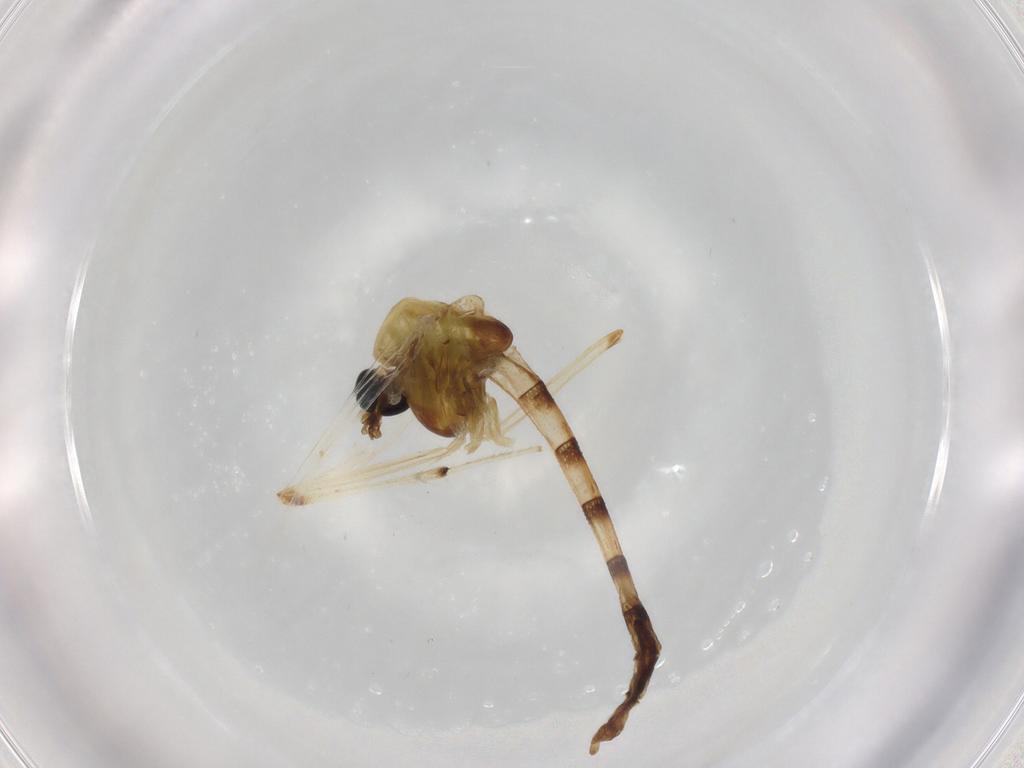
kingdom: Animalia
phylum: Arthropoda
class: Insecta
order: Diptera
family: Chironomidae
